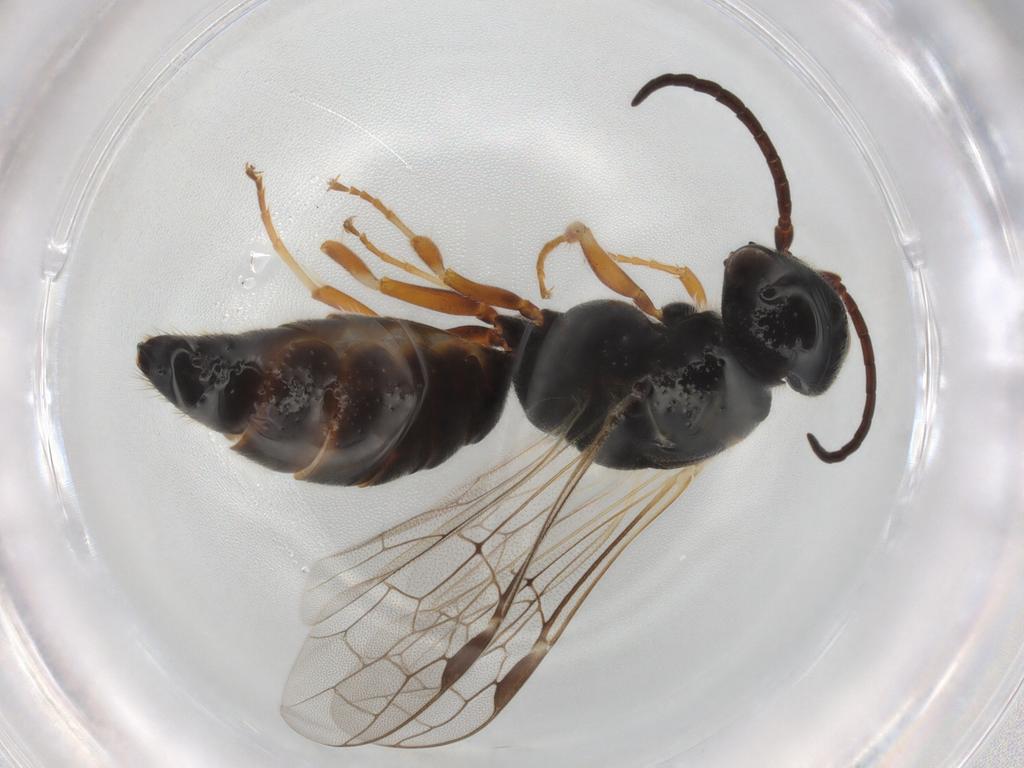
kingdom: Animalia
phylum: Arthropoda
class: Insecta
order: Hymenoptera
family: Thynnidae
